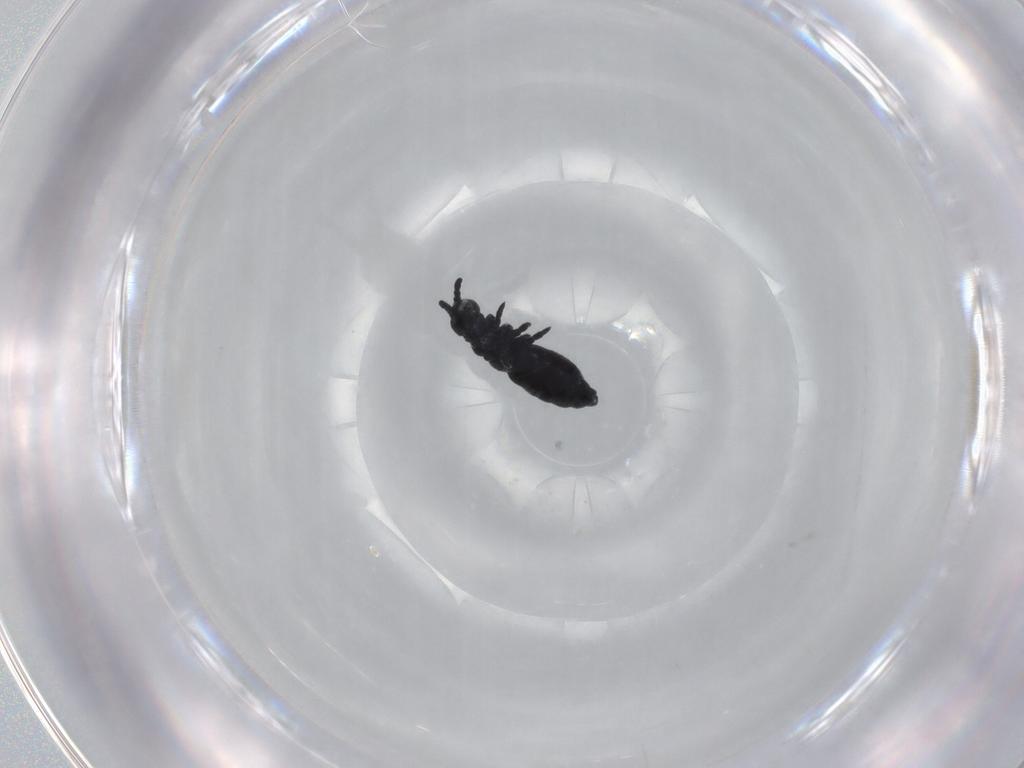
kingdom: Animalia
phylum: Arthropoda
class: Collembola
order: Poduromorpha
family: Hypogastruridae
